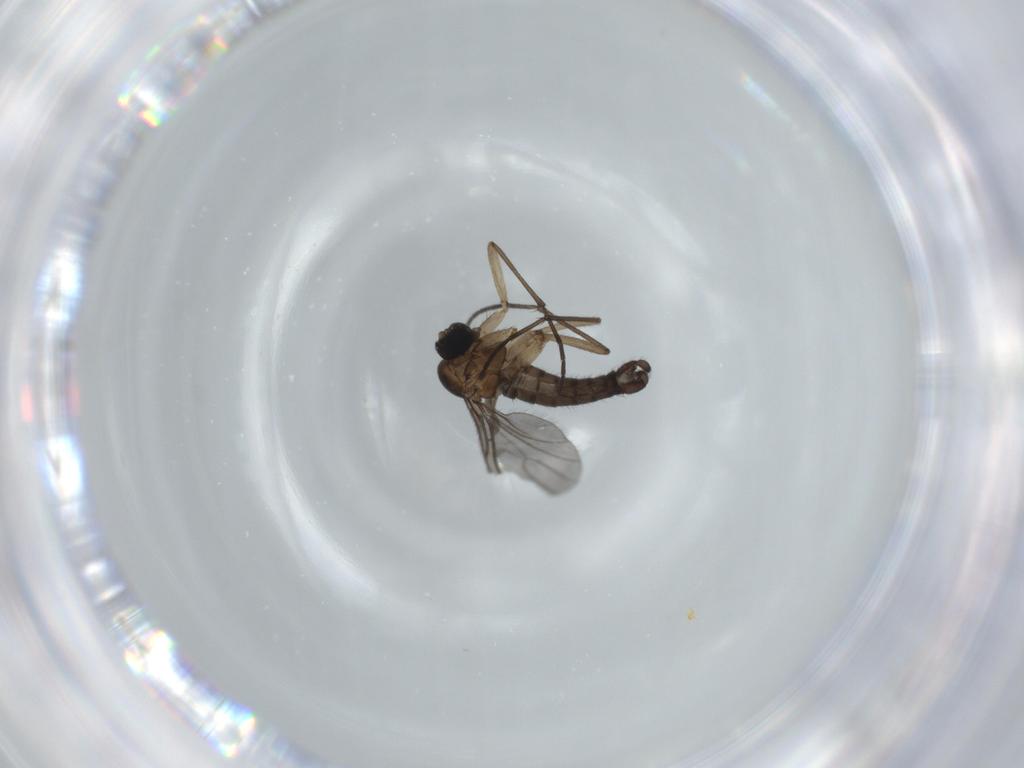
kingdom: Animalia
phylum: Arthropoda
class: Insecta
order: Diptera
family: Sciaridae
